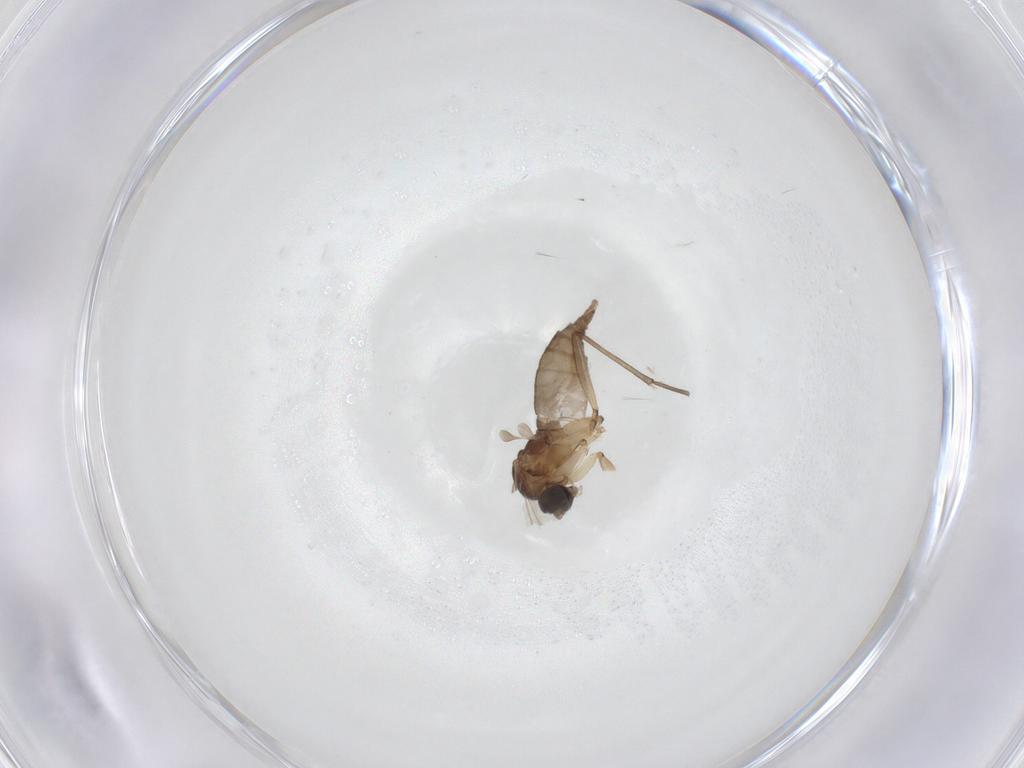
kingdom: Animalia
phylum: Arthropoda
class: Insecta
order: Diptera
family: Sciaridae
